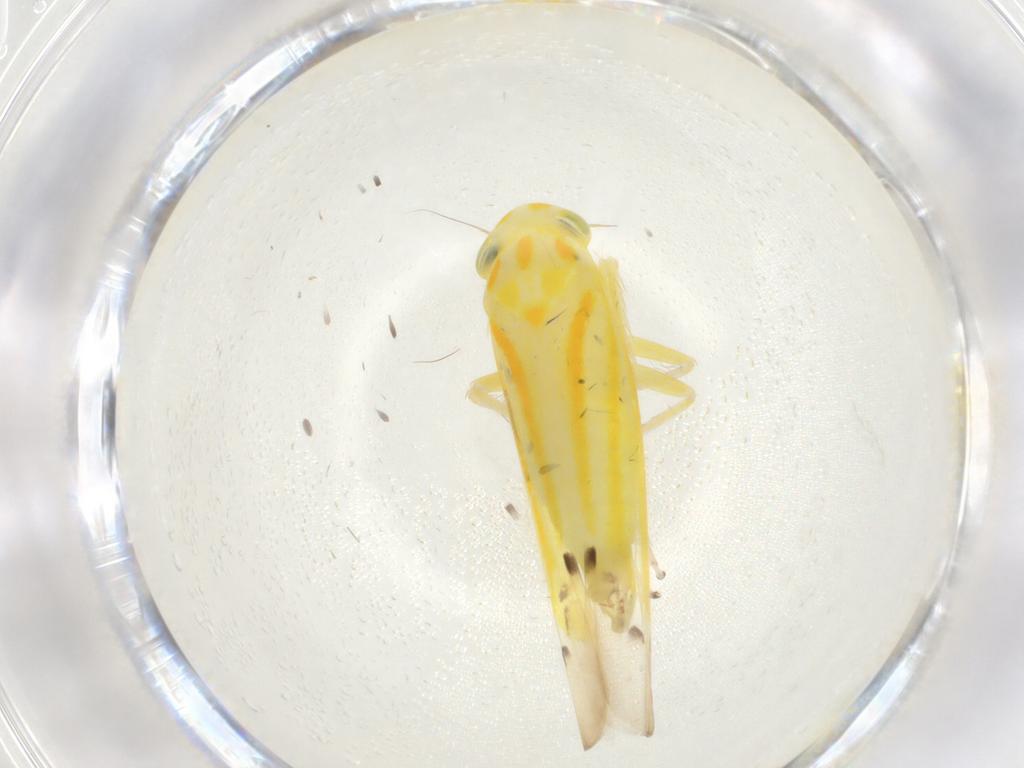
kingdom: Animalia
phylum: Arthropoda
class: Insecta
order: Hemiptera
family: Cicadellidae
